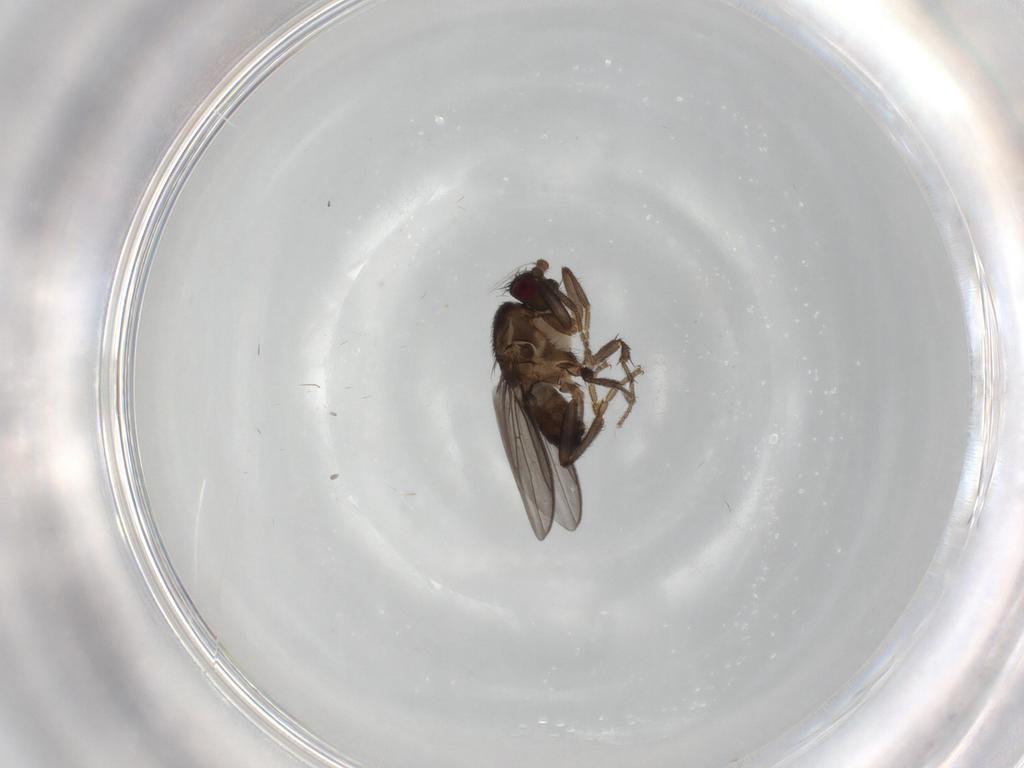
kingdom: Animalia
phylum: Arthropoda
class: Insecta
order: Diptera
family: Sphaeroceridae
